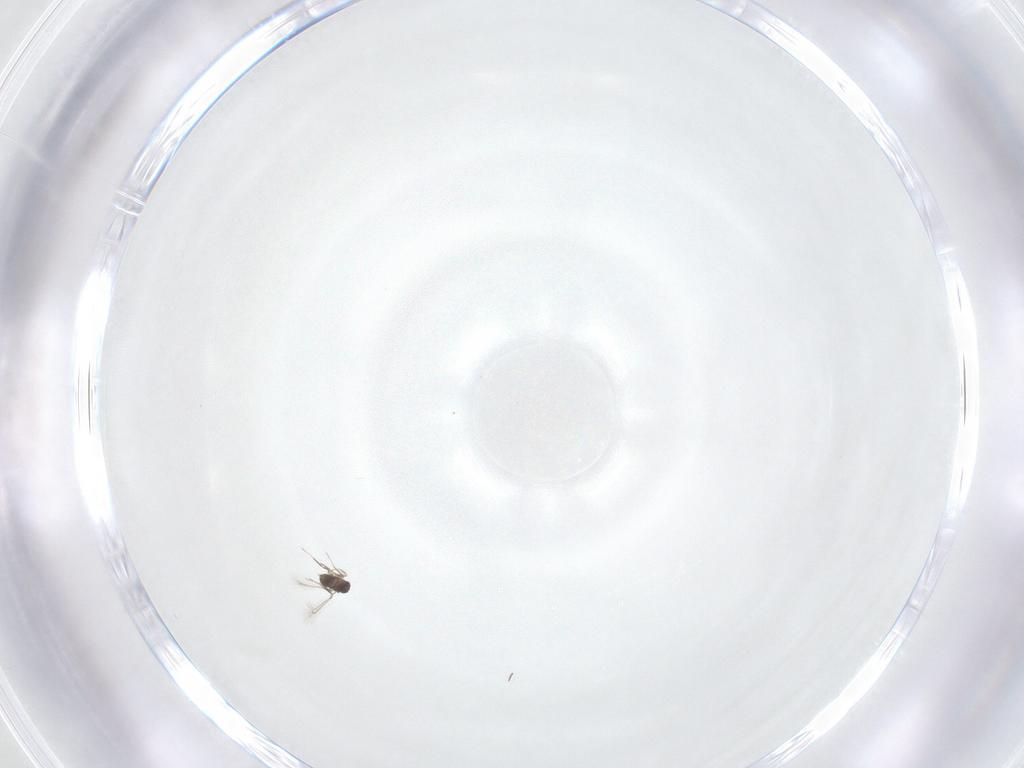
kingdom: Animalia
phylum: Arthropoda
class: Insecta
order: Hymenoptera
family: Mymaridae
